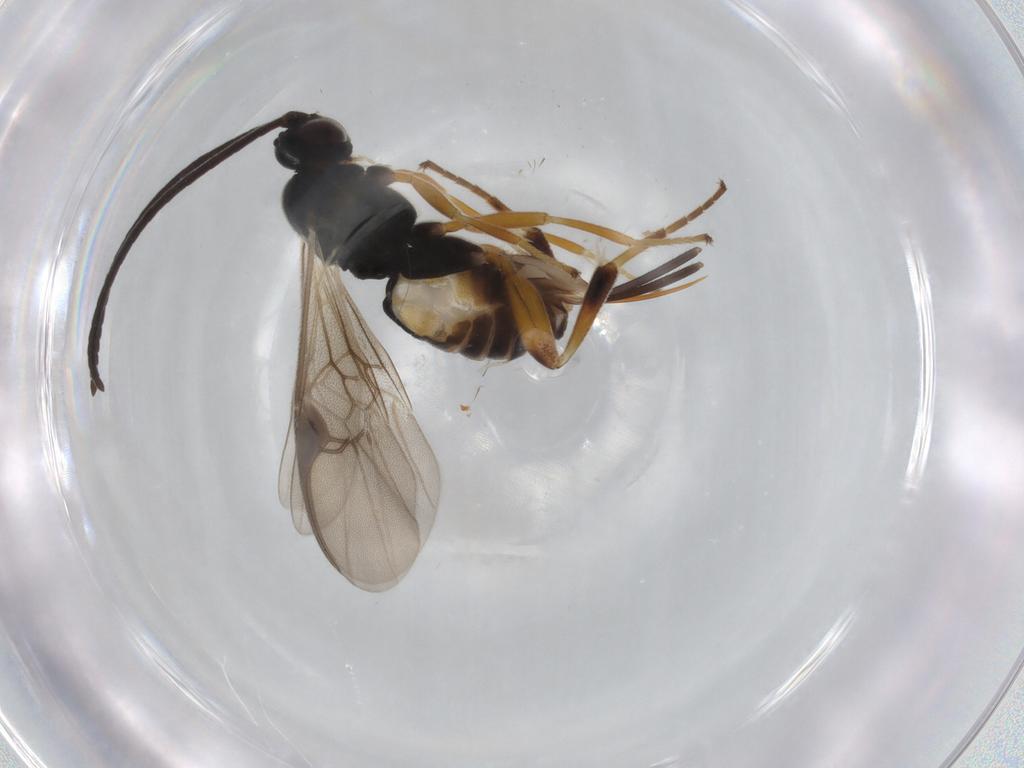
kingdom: Animalia
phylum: Arthropoda
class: Insecta
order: Hymenoptera
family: Braconidae
